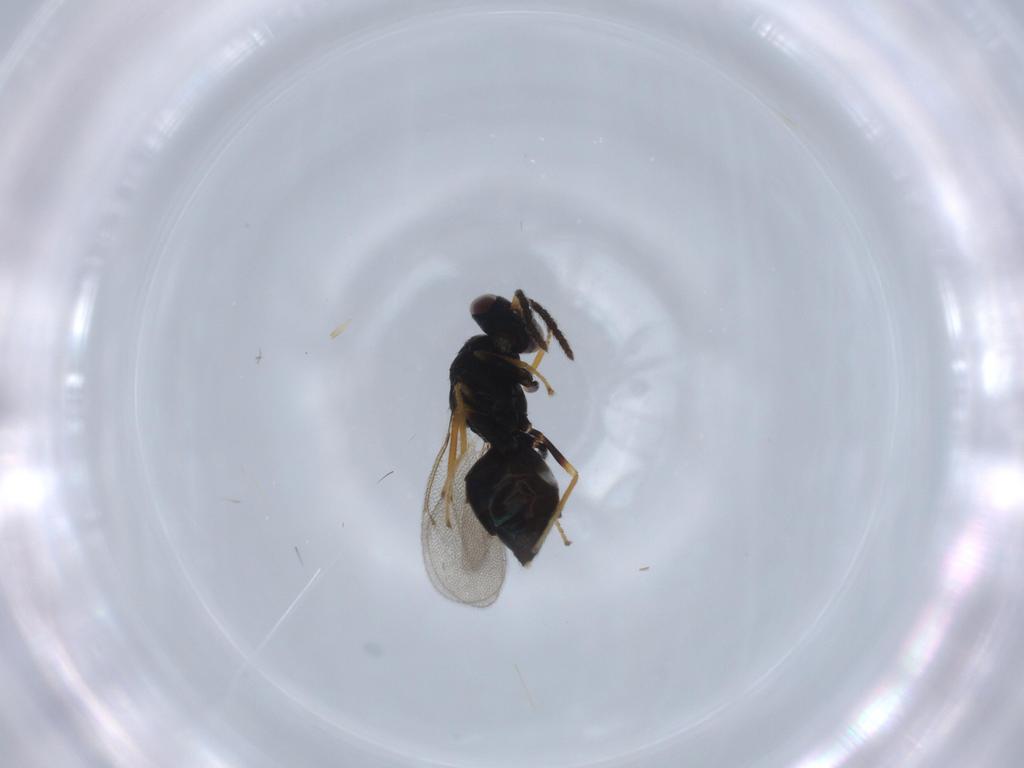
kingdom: Animalia
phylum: Arthropoda
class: Insecta
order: Hymenoptera
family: Eulophidae
